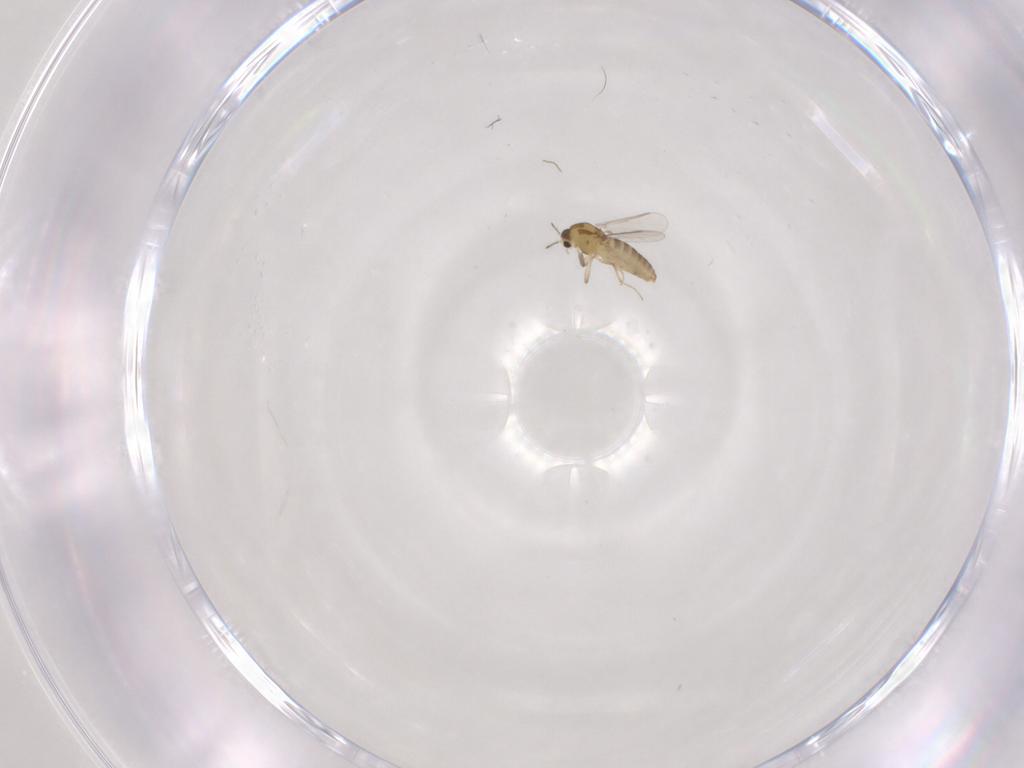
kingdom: Animalia
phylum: Arthropoda
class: Insecta
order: Diptera
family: Chironomidae
